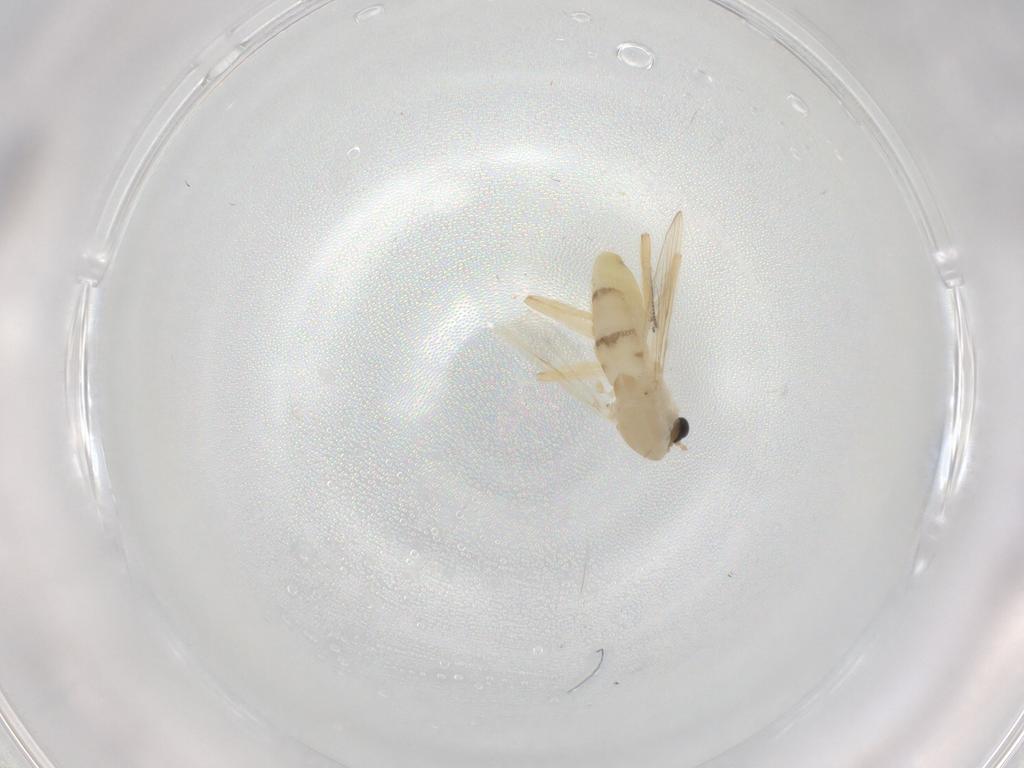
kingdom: Animalia
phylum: Arthropoda
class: Insecta
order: Diptera
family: Chironomidae
